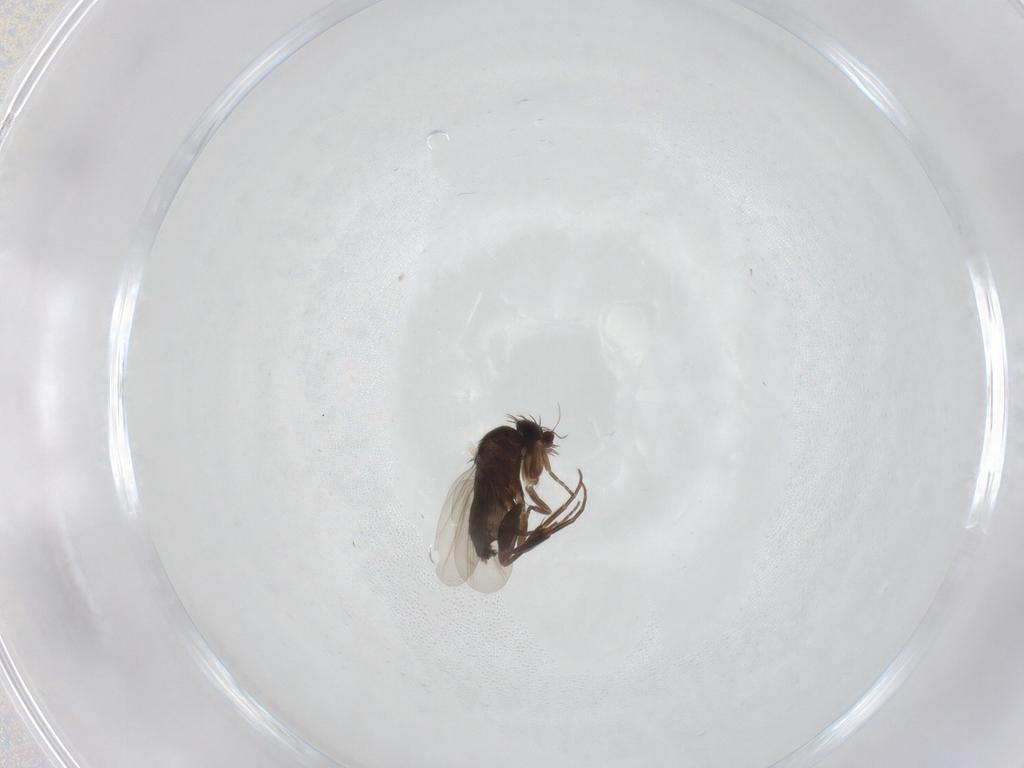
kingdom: Animalia
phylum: Arthropoda
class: Insecta
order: Diptera
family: Phoridae
